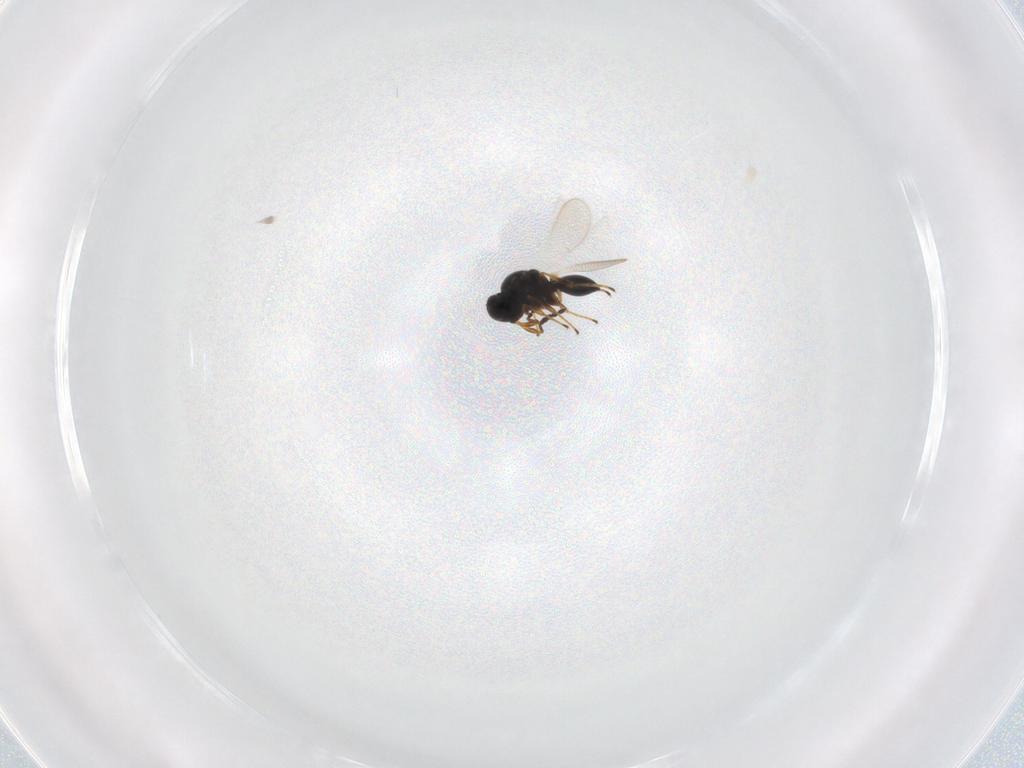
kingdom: Animalia
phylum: Arthropoda
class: Insecta
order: Hymenoptera
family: Platygastridae
